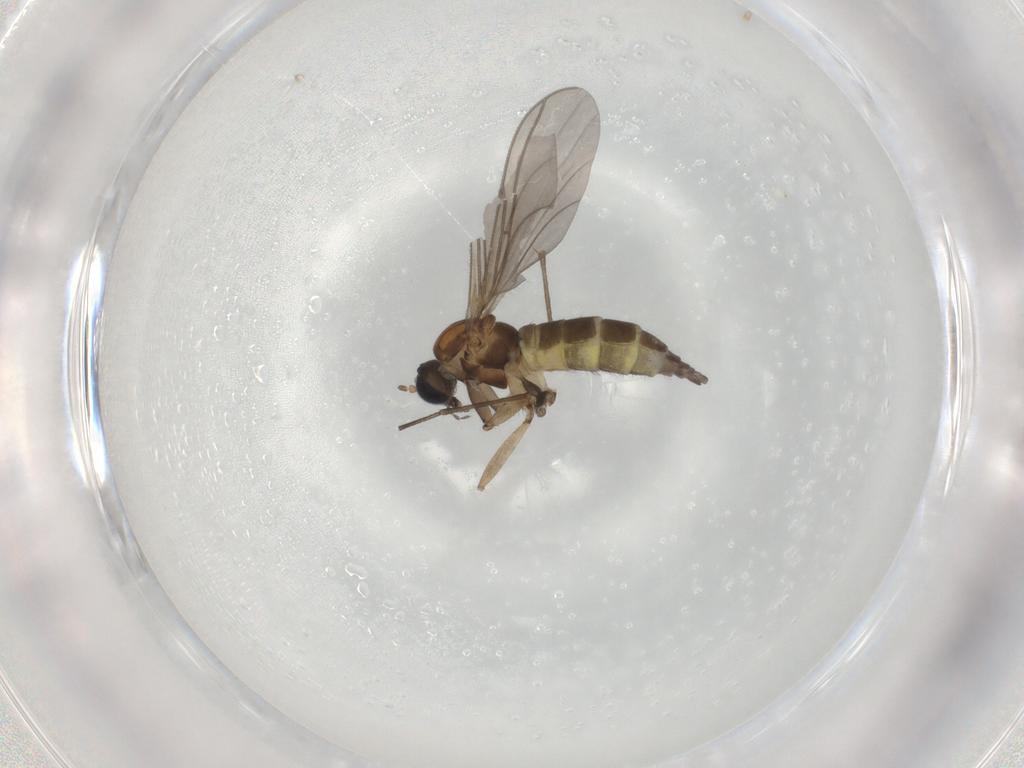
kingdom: Animalia
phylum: Arthropoda
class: Insecta
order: Diptera
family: Sciaridae
